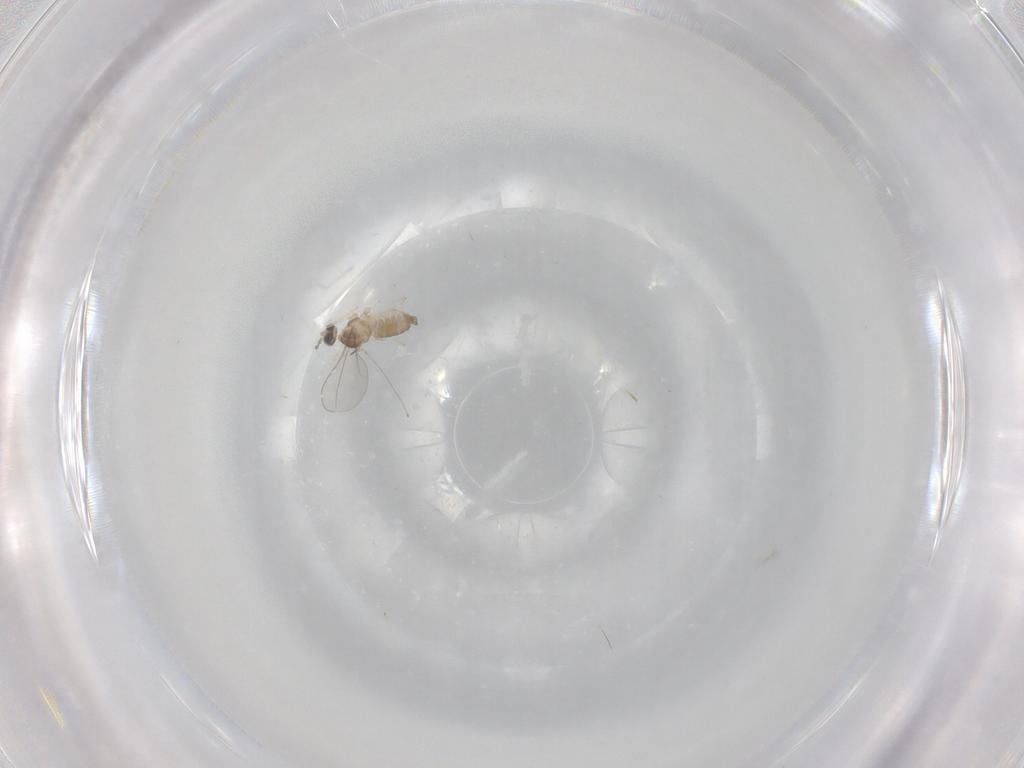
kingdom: Animalia
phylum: Arthropoda
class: Insecta
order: Diptera
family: Cecidomyiidae
